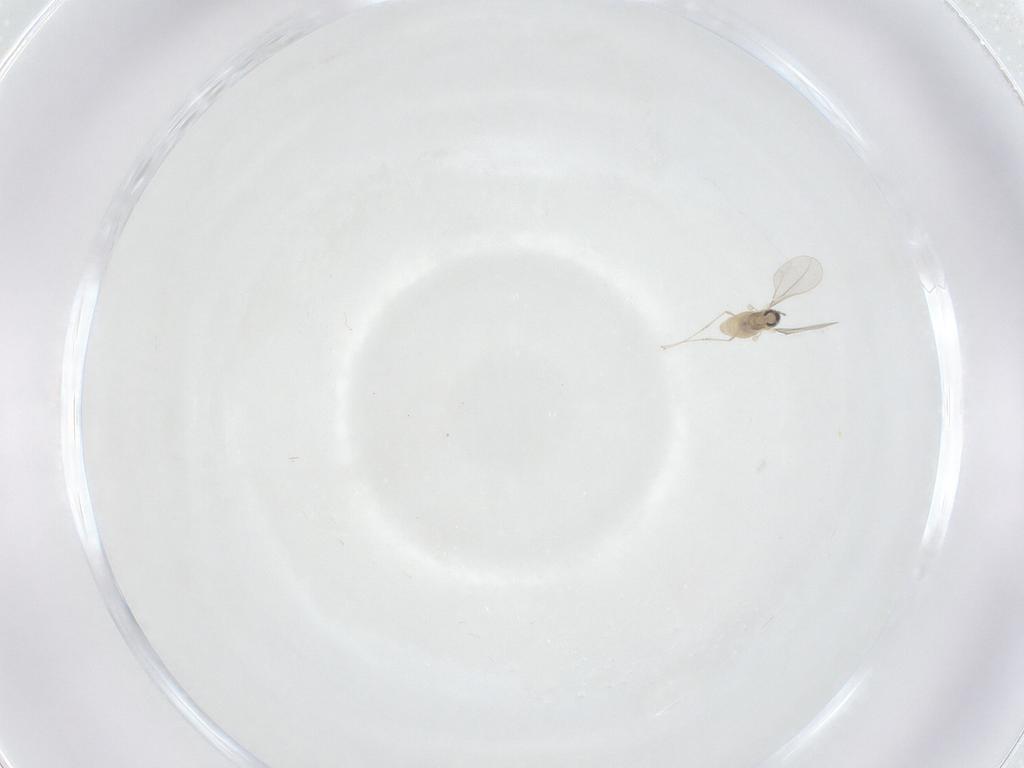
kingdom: Animalia
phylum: Arthropoda
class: Insecta
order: Diptera
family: Cecidomyiidae
